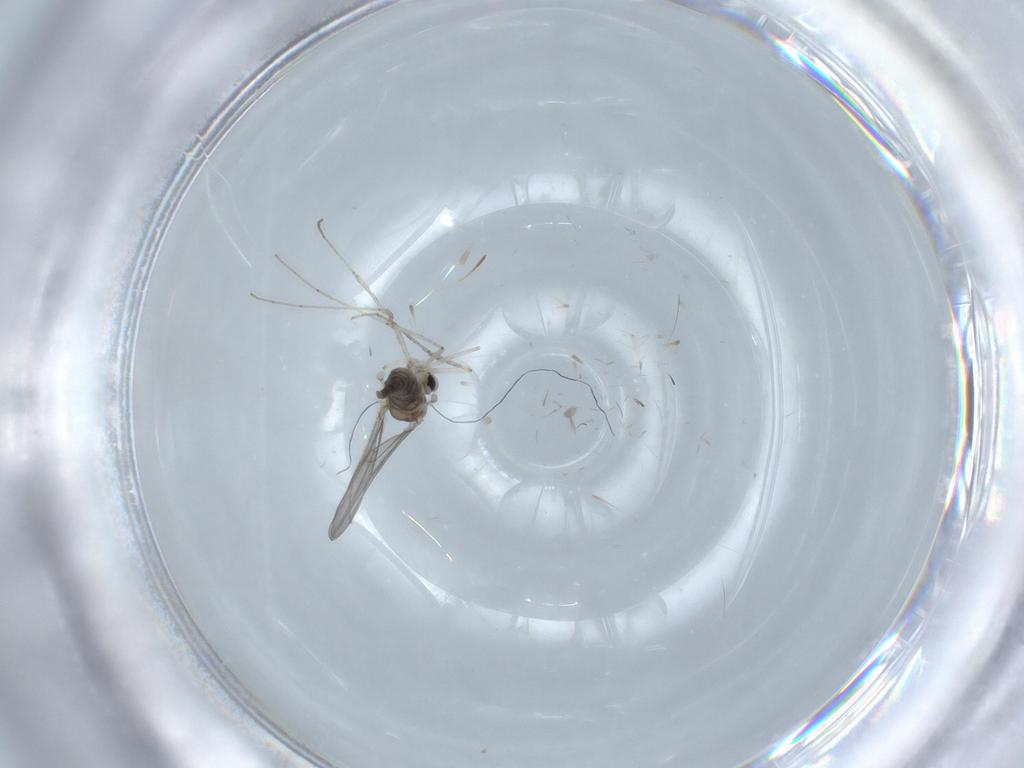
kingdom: Animalia
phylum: Arthropoda
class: Insecta
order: Diptera
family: Cecidomyiidae
